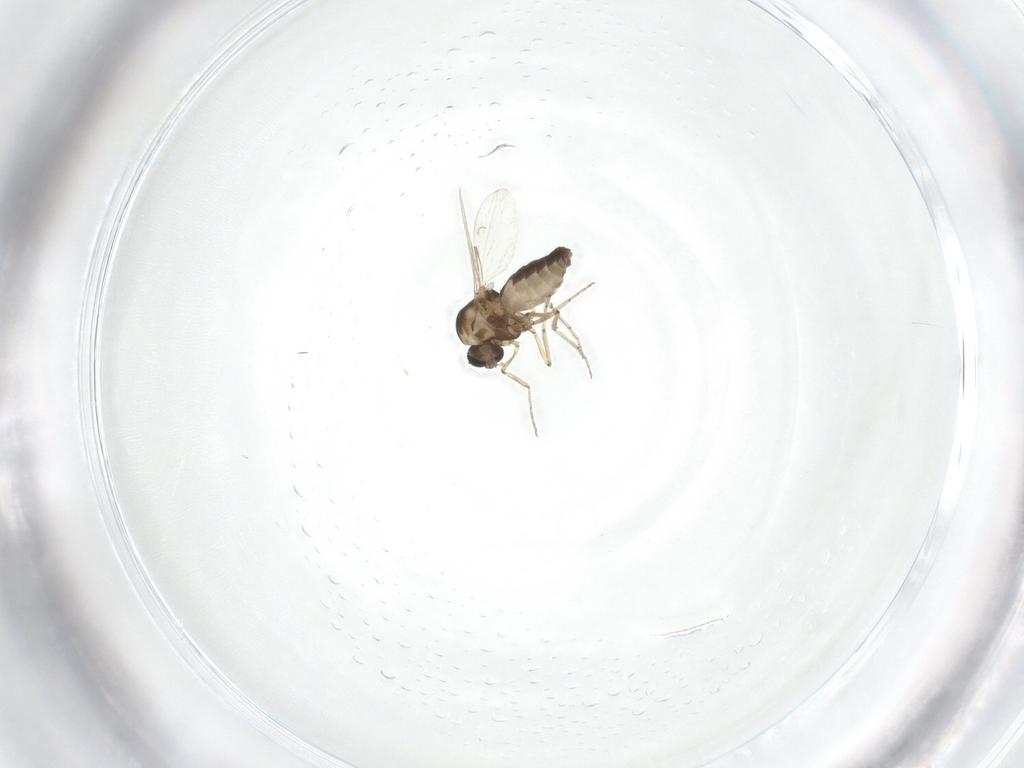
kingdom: Animalia
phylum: Arthropoda
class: Insecta
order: Diptera
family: Ceratopogonidae
